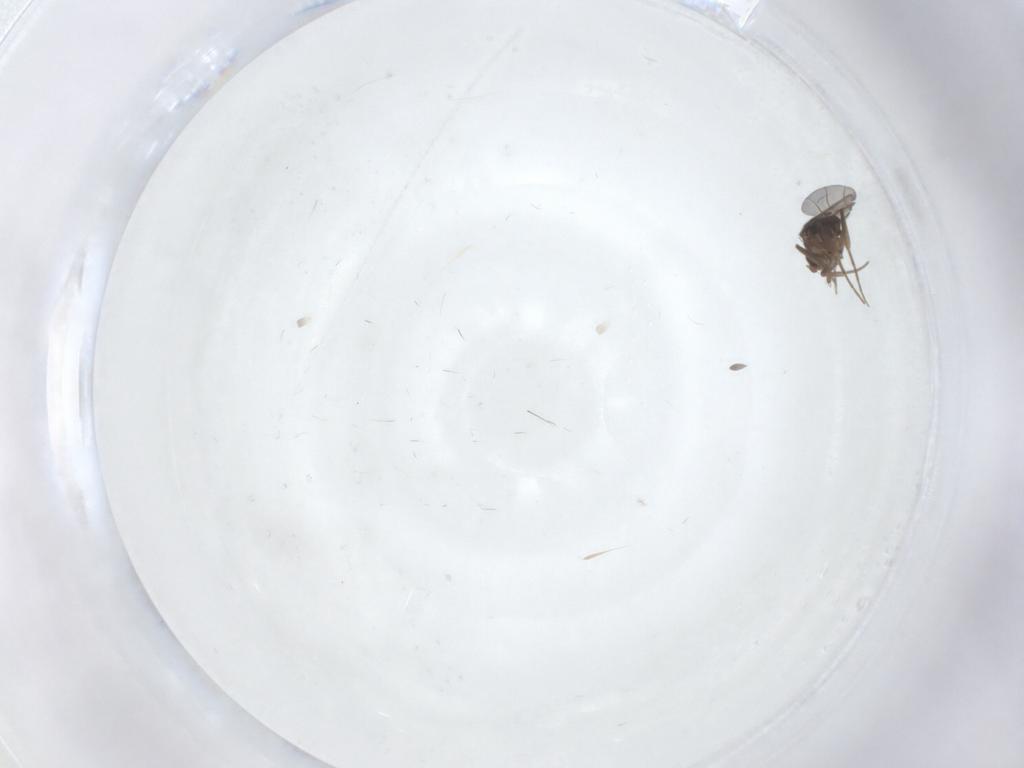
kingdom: Animalia
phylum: Arthropoda
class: Insecta
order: Diptera
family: Phoridae
